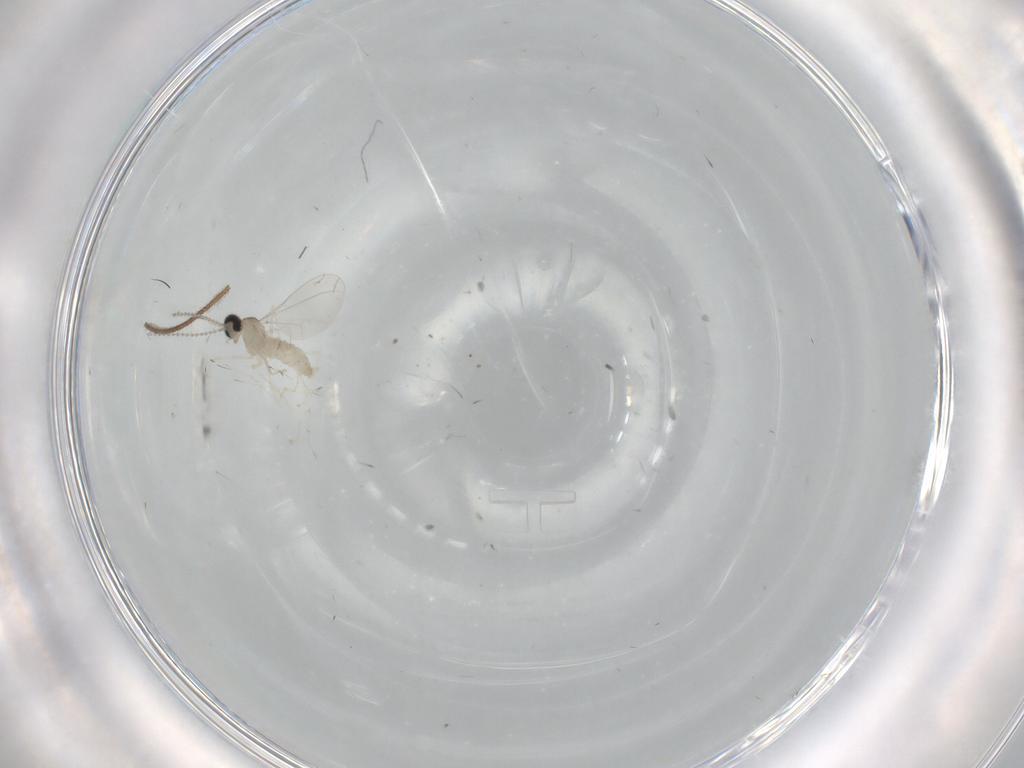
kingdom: Animalia
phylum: Arthropoda
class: Insecta
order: Diptera
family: Cecidomyiidae
